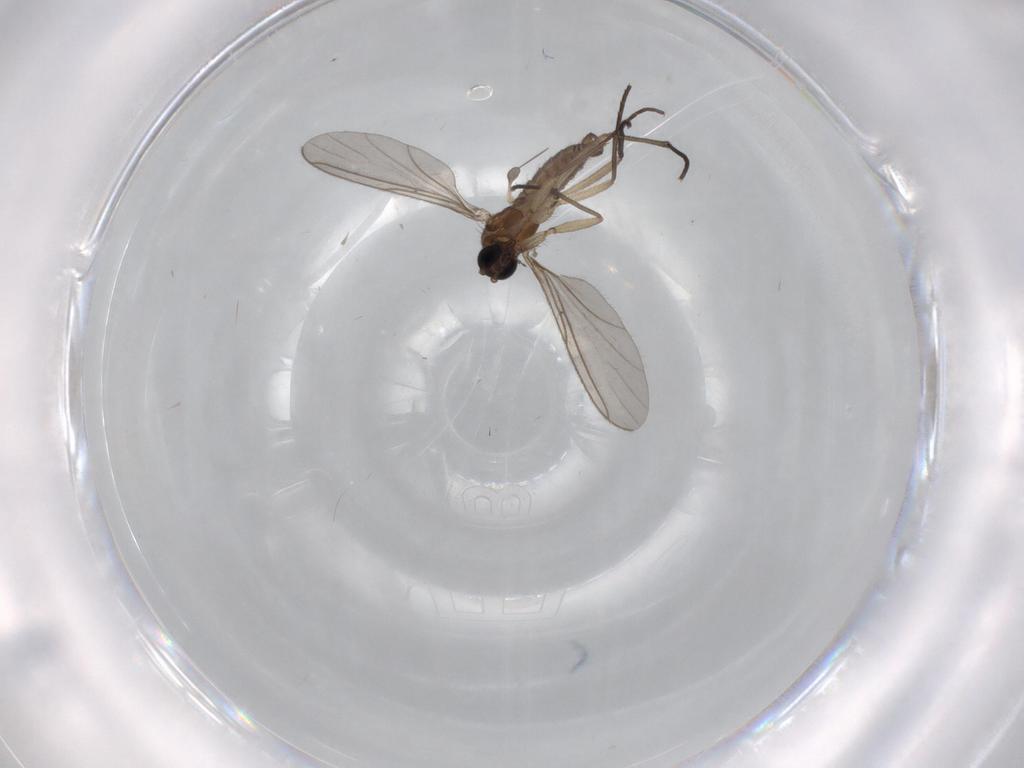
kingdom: Animalia
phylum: Arthropoda
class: Insecta
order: Diptera
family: Sciaridae
